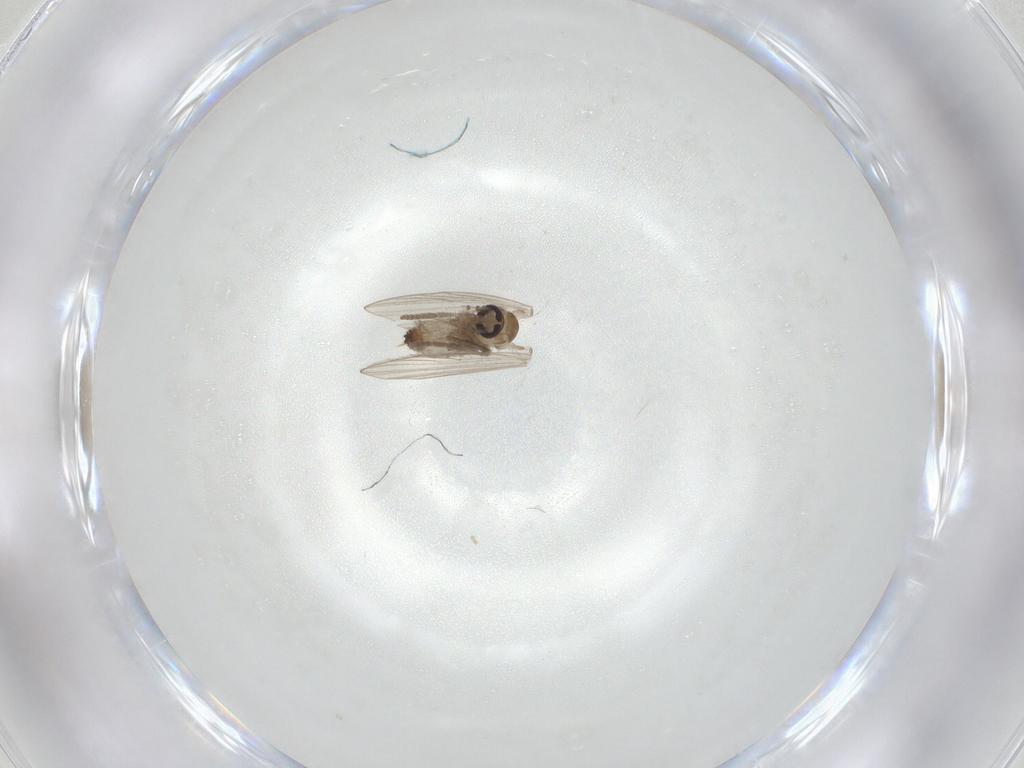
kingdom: Animalia
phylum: Arthropoda
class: Insecta
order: Diptera
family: Psychodidae
